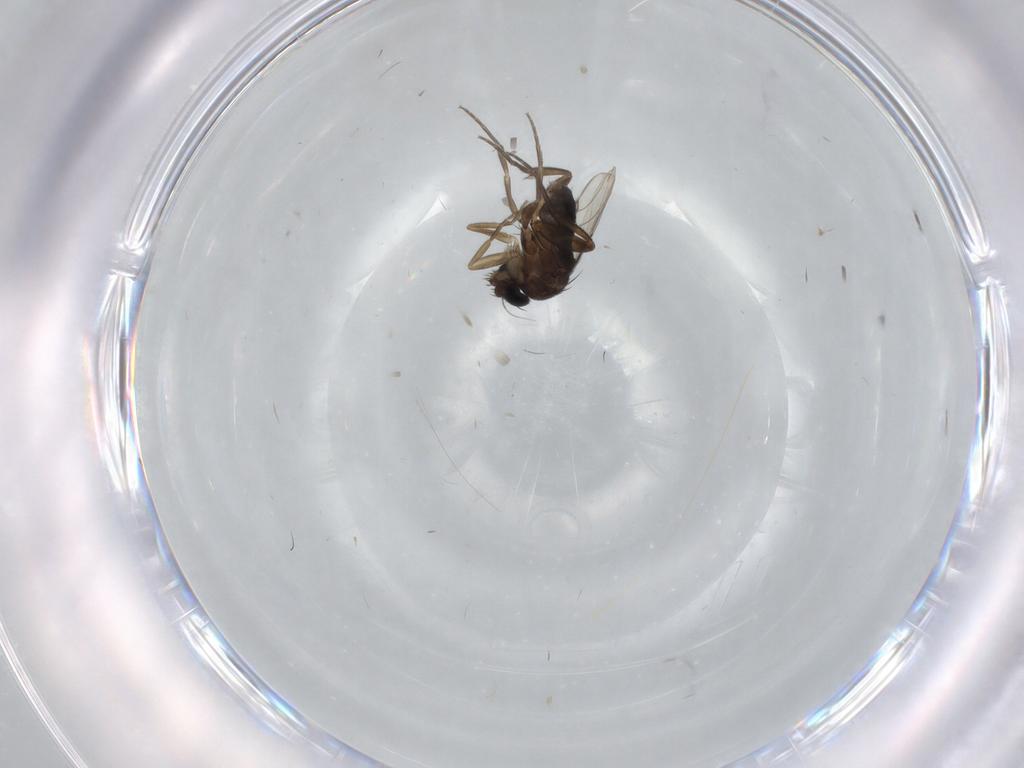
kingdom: Animalia
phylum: Arthropoda
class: Insecta
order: Diptera
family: Phoridae
